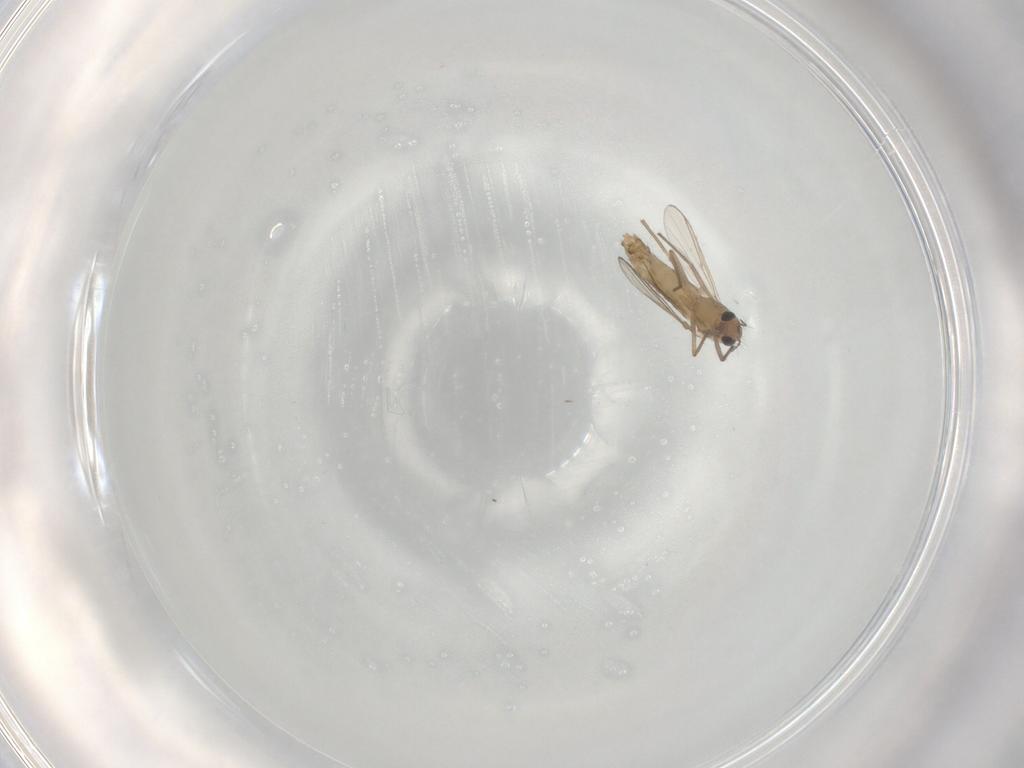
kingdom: Animalia
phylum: Arthropoda
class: Insecta
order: Diptera
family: Chironomidae
